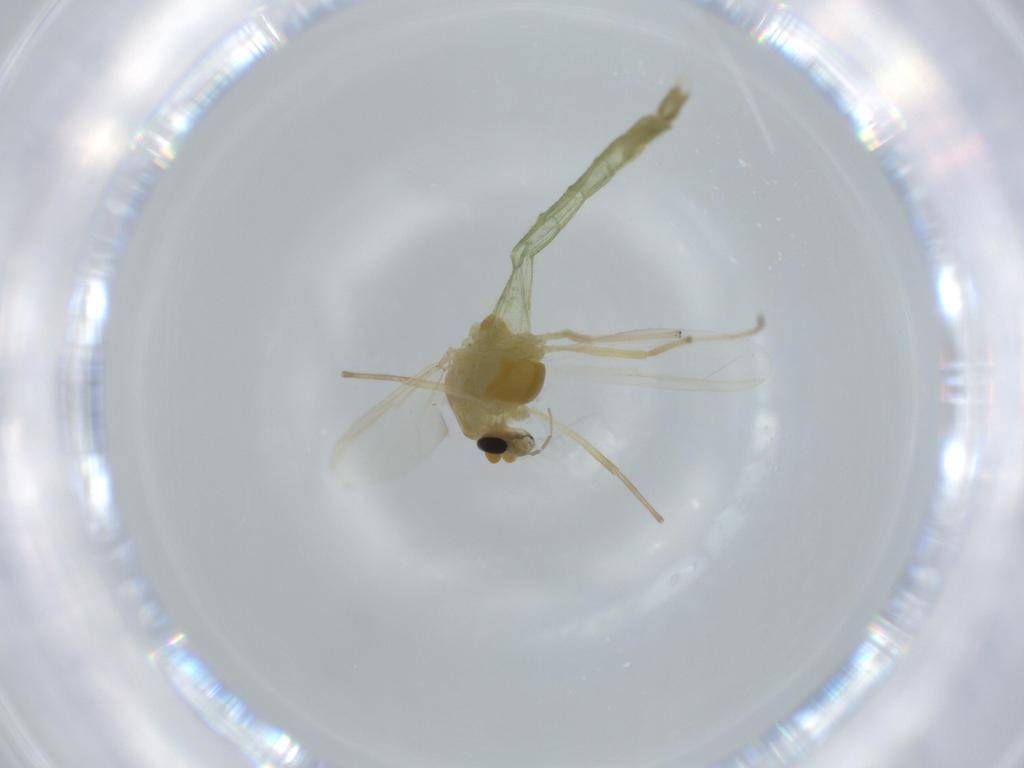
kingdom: Animalia
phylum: Arthropoda
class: Insecta
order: Diptera
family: Chironomidae
